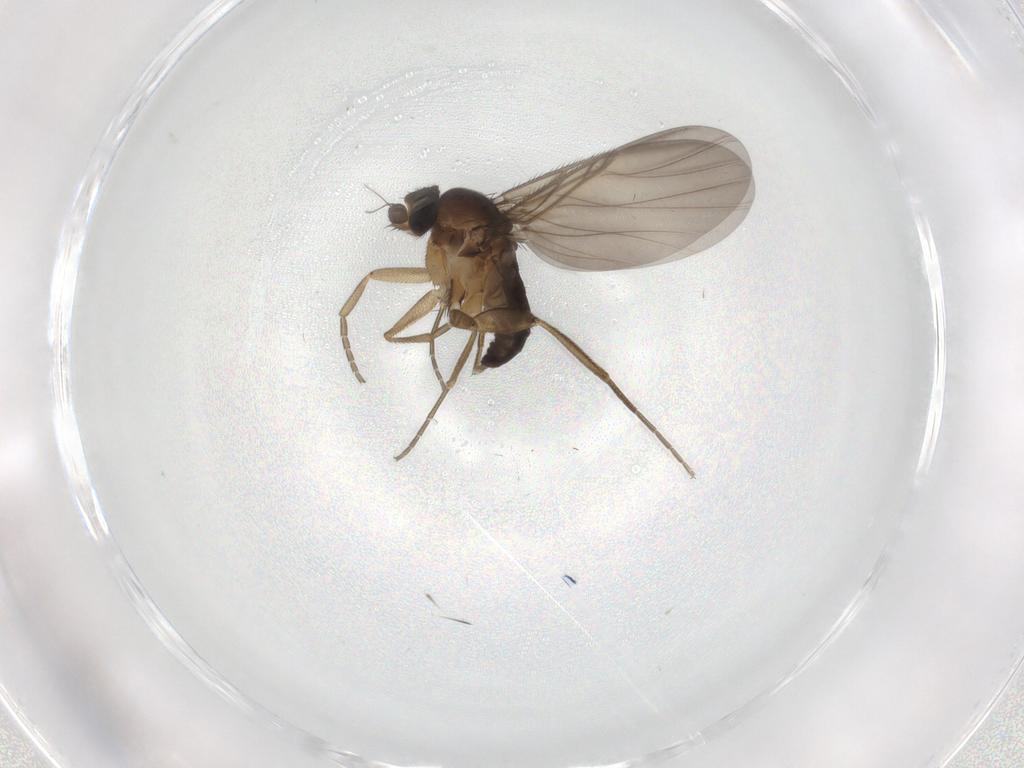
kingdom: Animalia
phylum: Arthropoda
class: Insecta
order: Diptera
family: Phoridae
